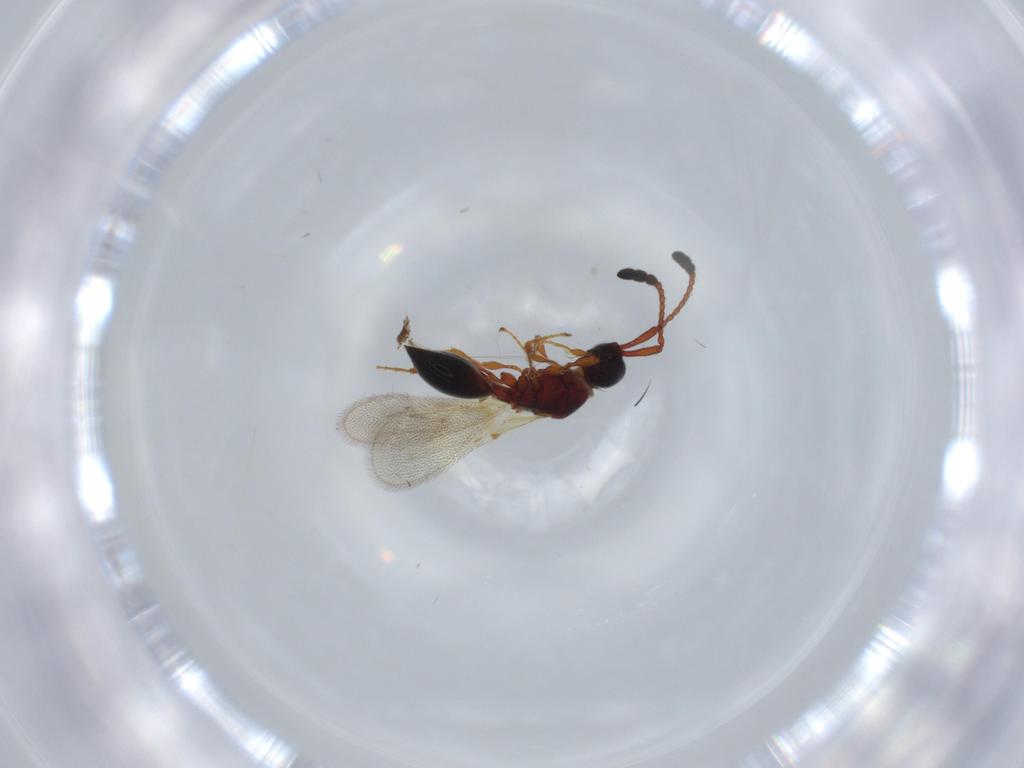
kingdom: Animalia
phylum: Arthropoda
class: Insecta
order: Hymenoptera
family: Diapriidae
